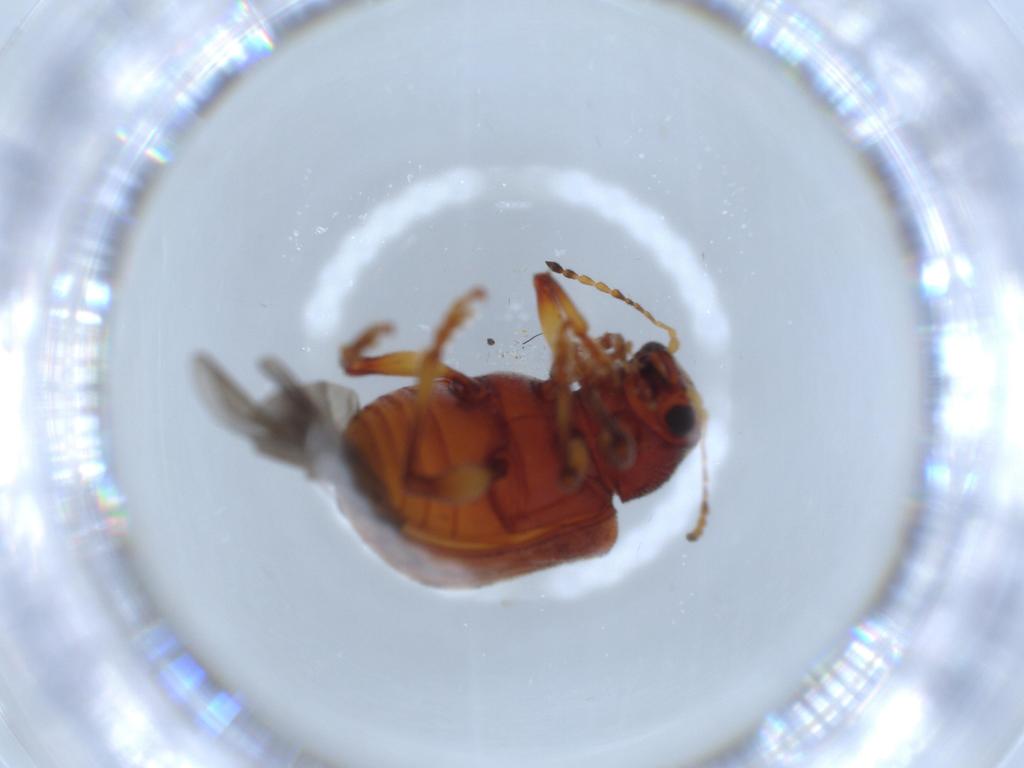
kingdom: Animalia
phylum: Arthropoda
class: Insecta
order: Coleoptera
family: Chrysomelidae
